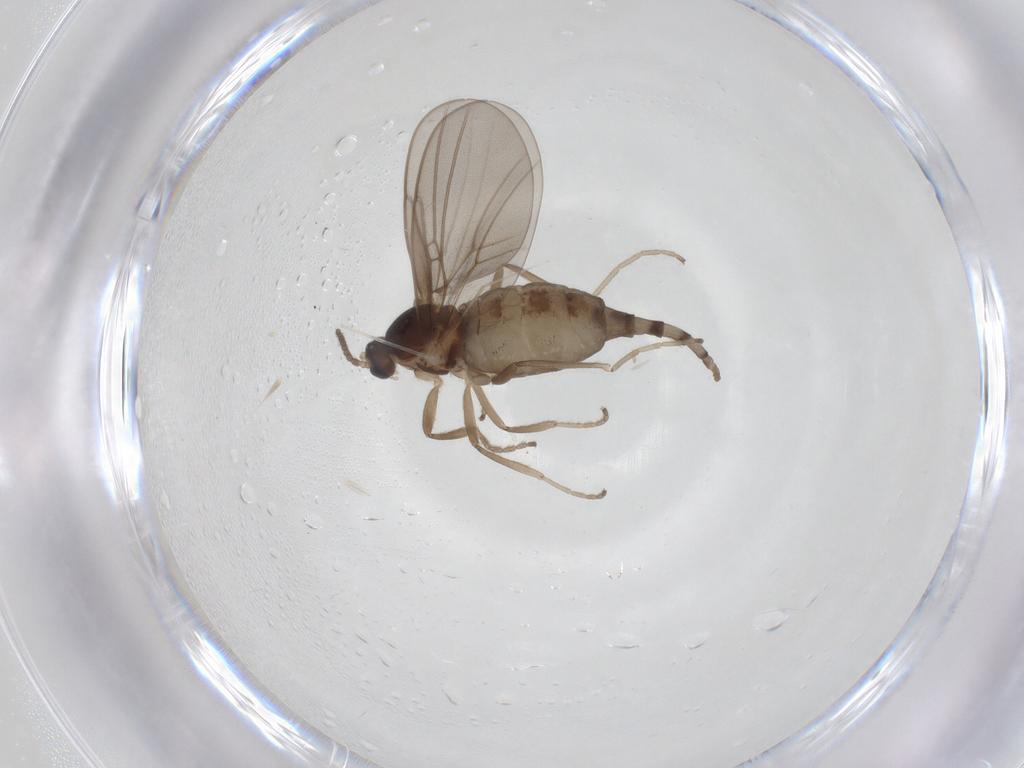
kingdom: Animalia
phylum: Arthropoda
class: Insecta
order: Diptera
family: Cecidomyiidae
